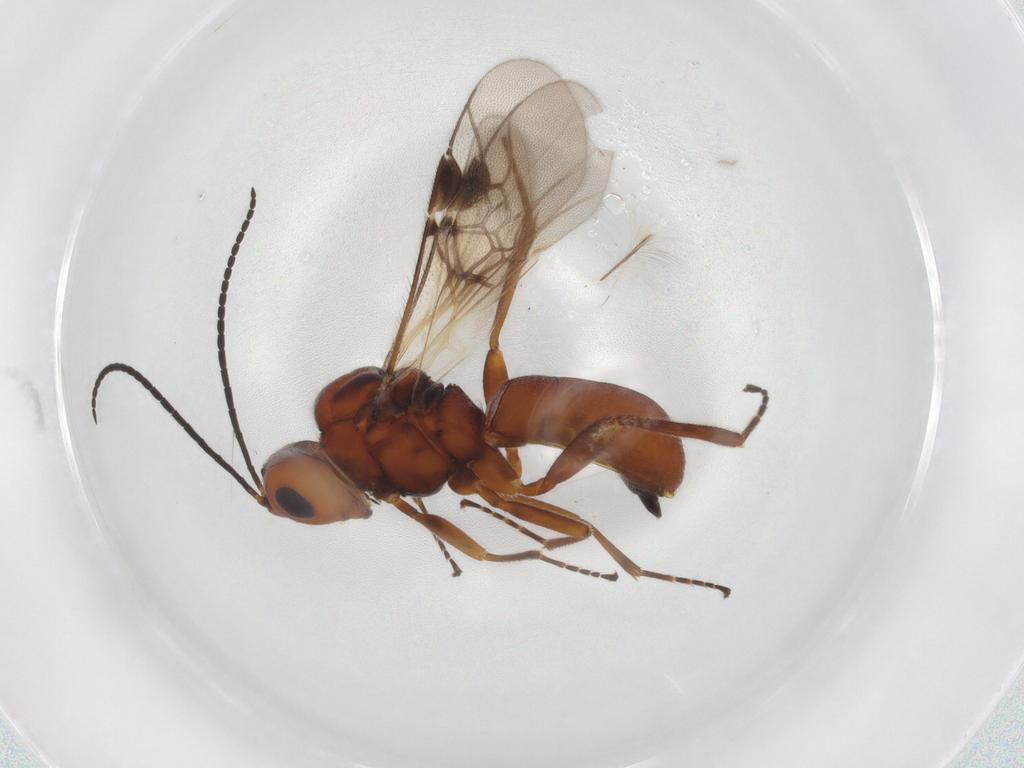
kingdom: Animalia
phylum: Arthropoda
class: Insecta
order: Hymenoptera
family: Braconidae
